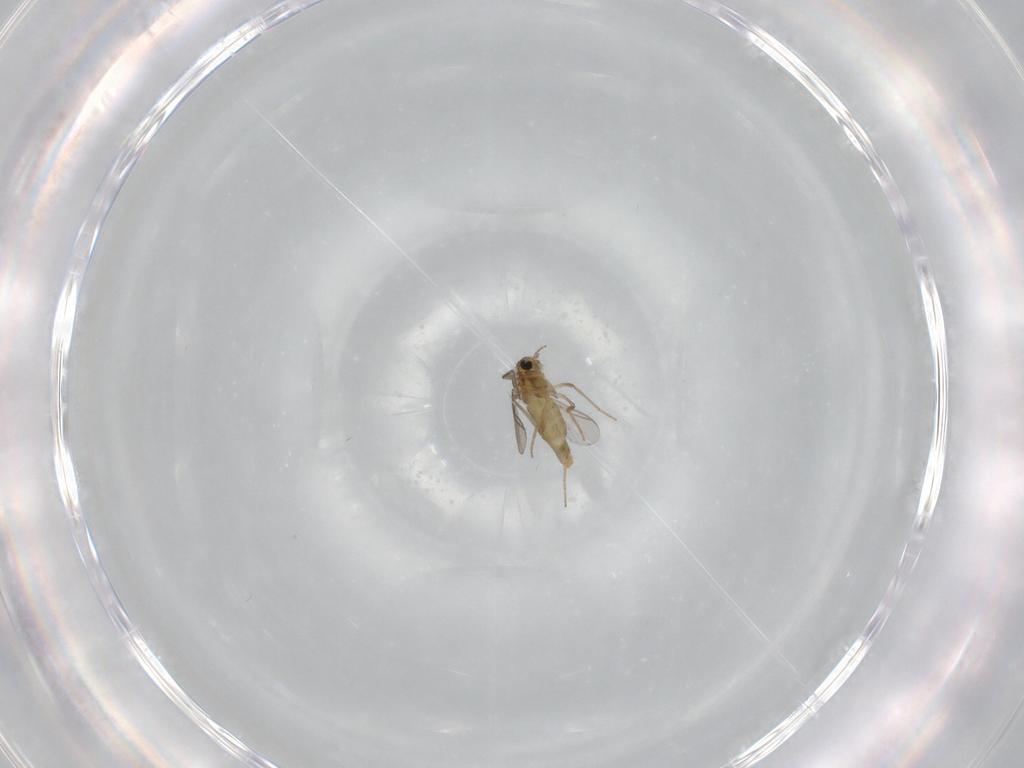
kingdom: Animalia
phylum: Arthropoda
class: Insecta
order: Diptera
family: Chironomidae
